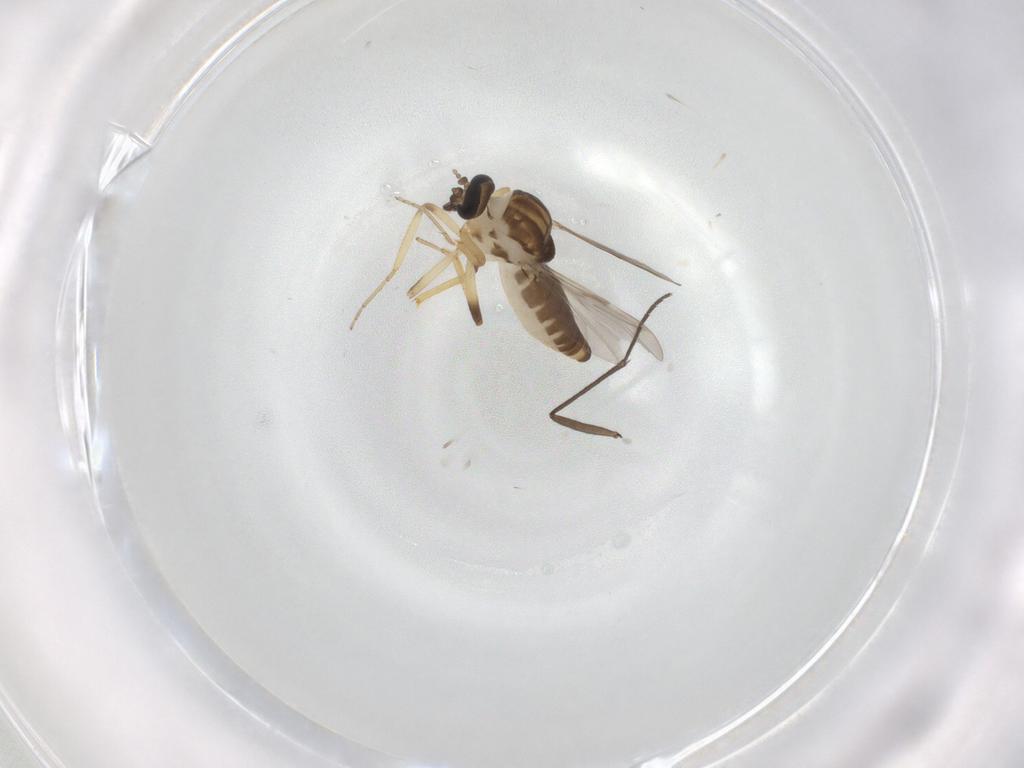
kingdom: Animalia
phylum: Arthropoda
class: Insecta
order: Diptera
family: Ceratopogonidae
